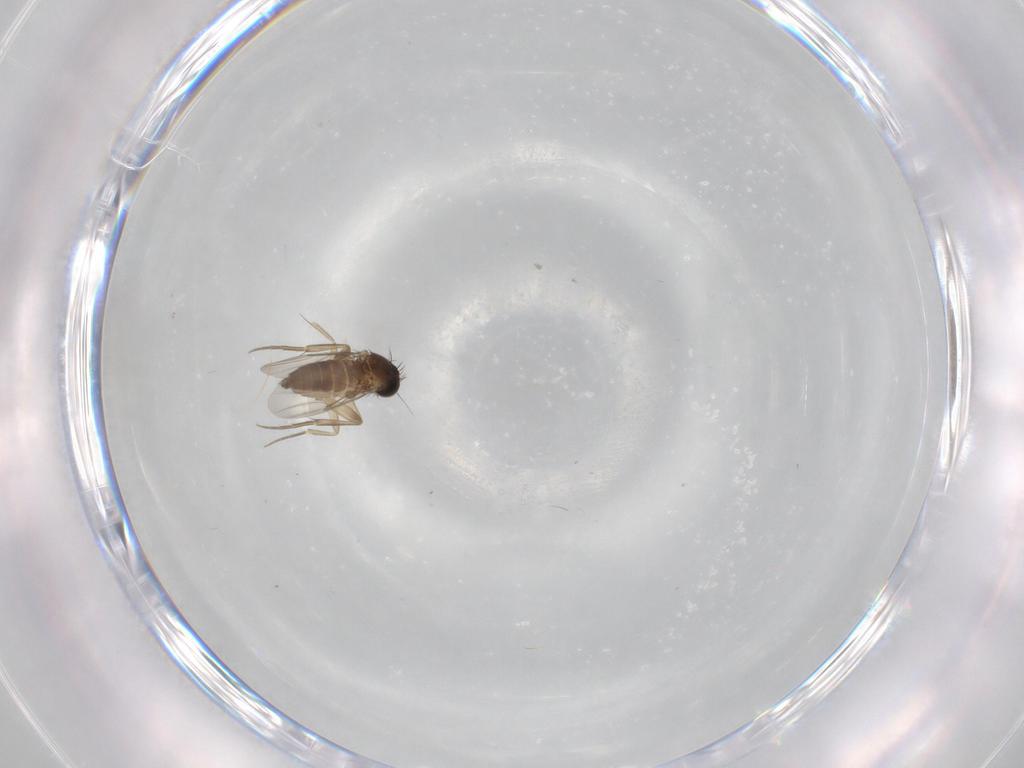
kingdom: Animalia
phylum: Arthropoda
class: Insecta
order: Diptera
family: Phoridae
